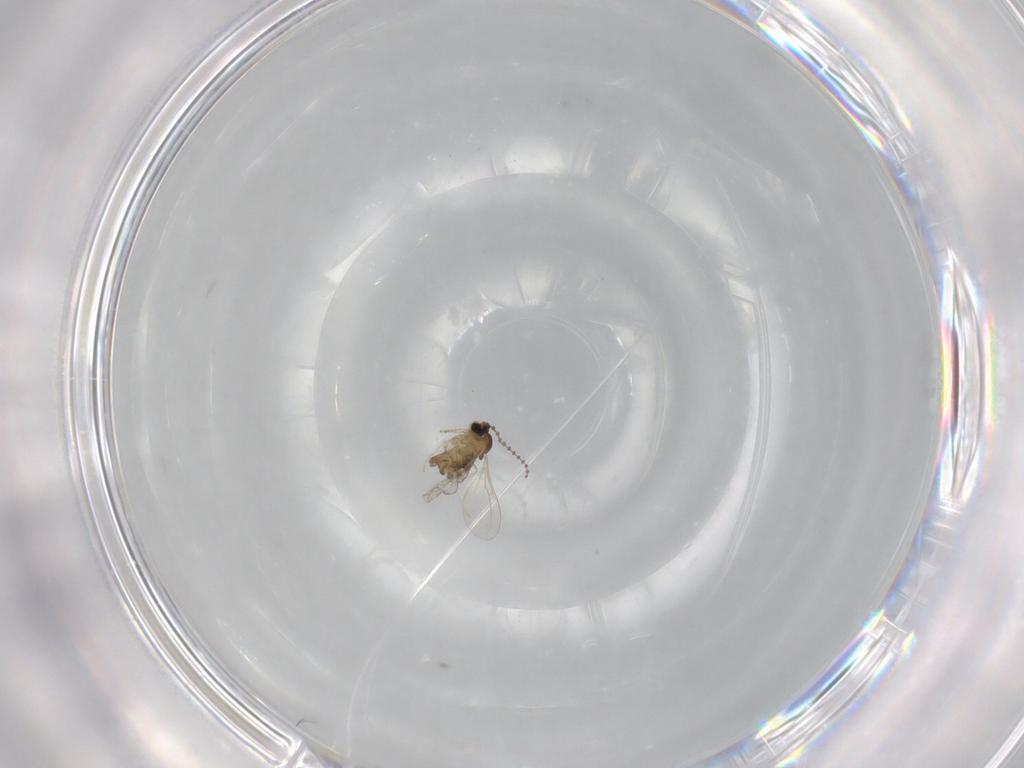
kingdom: Animalia
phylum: Arthropoda
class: Insecta
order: Diptera
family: Cecidomyiidae
